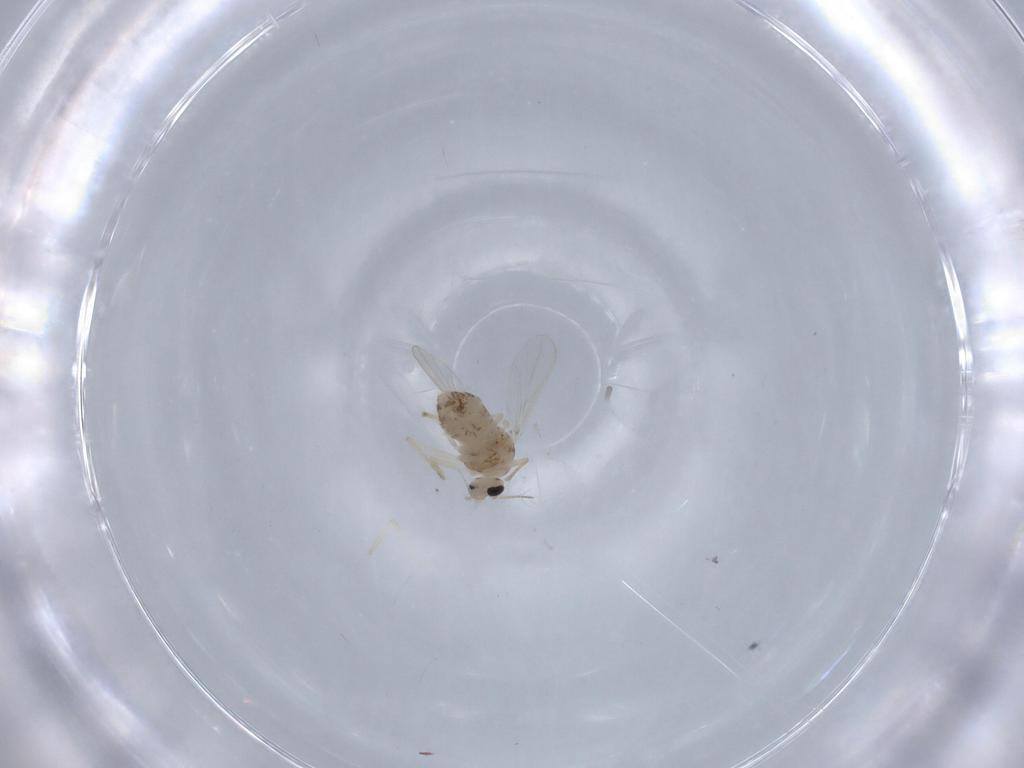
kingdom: Animalia
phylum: Arthropoda
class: Insecta
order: Diptera
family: Chironomidae
